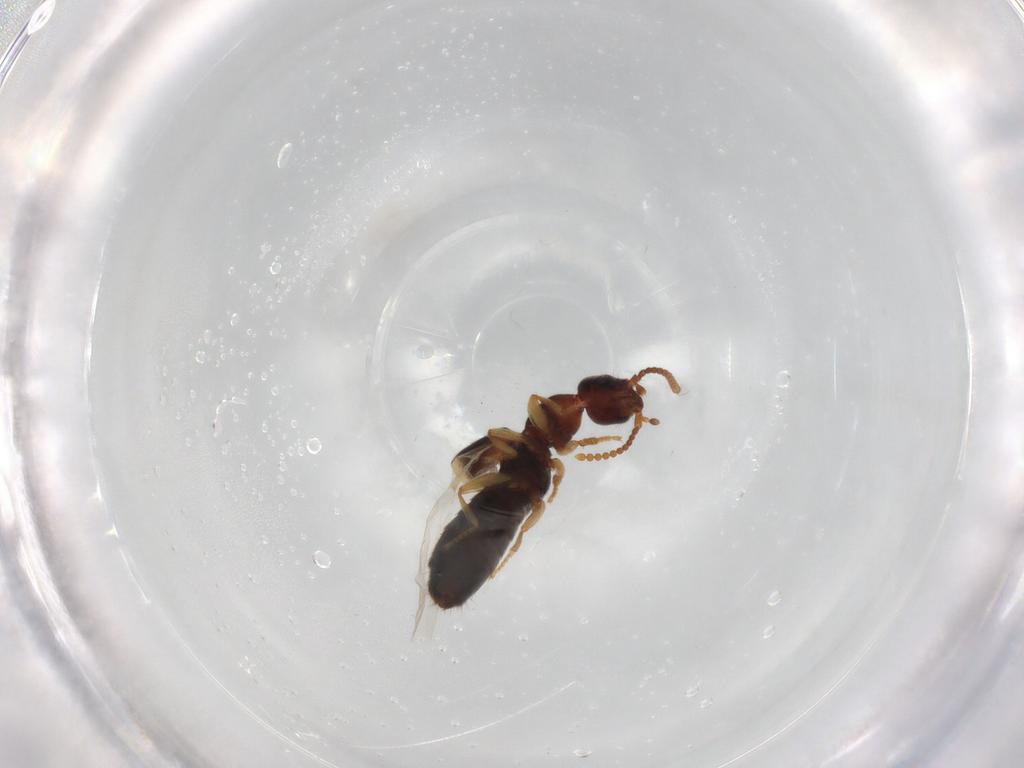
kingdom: Animalia
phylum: Arthropoda
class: Insecta
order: Coleoptera
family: Chrysomelidae
